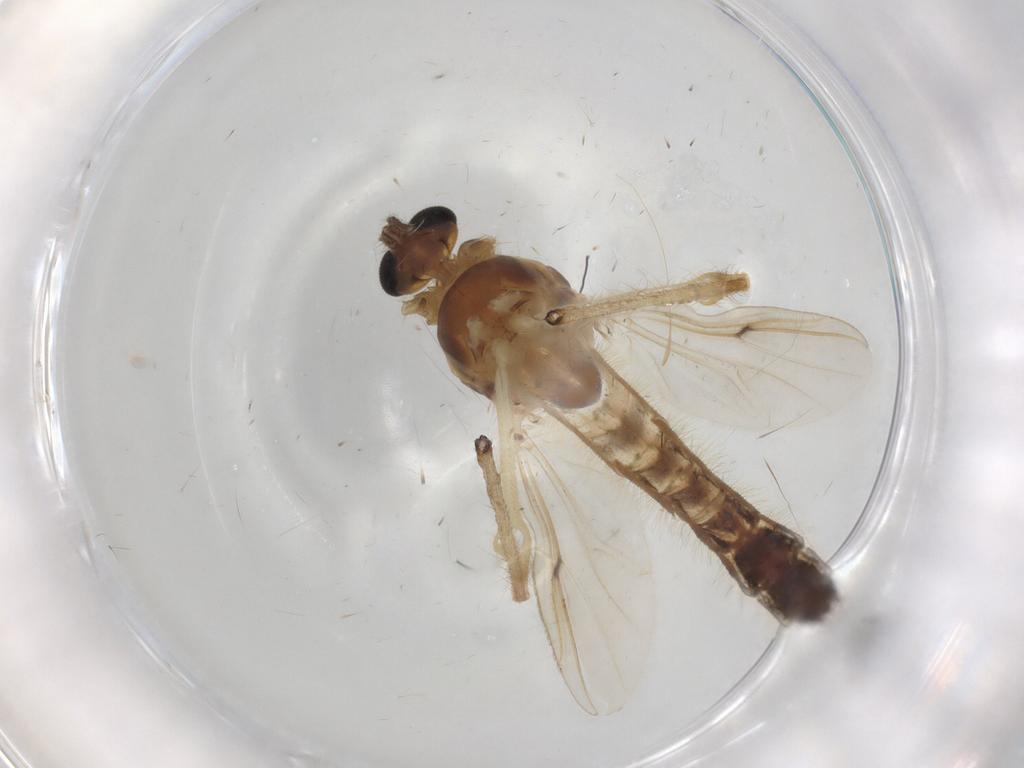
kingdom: Animalia
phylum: Arthropoda
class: Insecta
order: Diptera
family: Chironomidae
